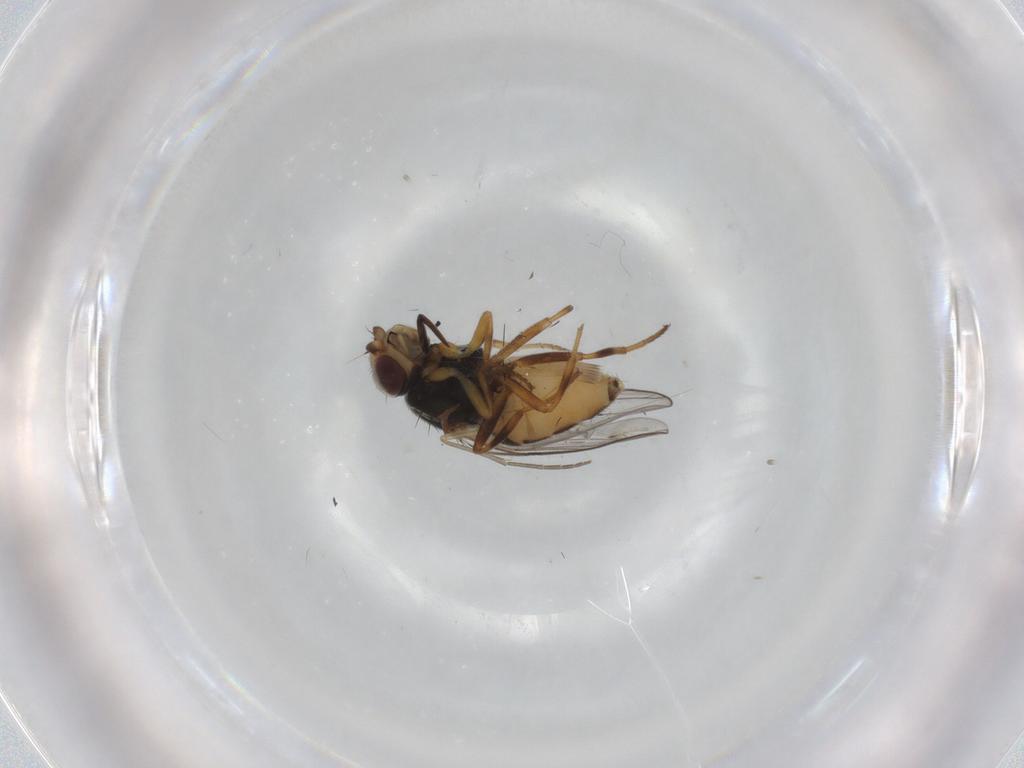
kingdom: Animalia
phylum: Arthropoda
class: Insecta
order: Diptera
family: Chloropidae
